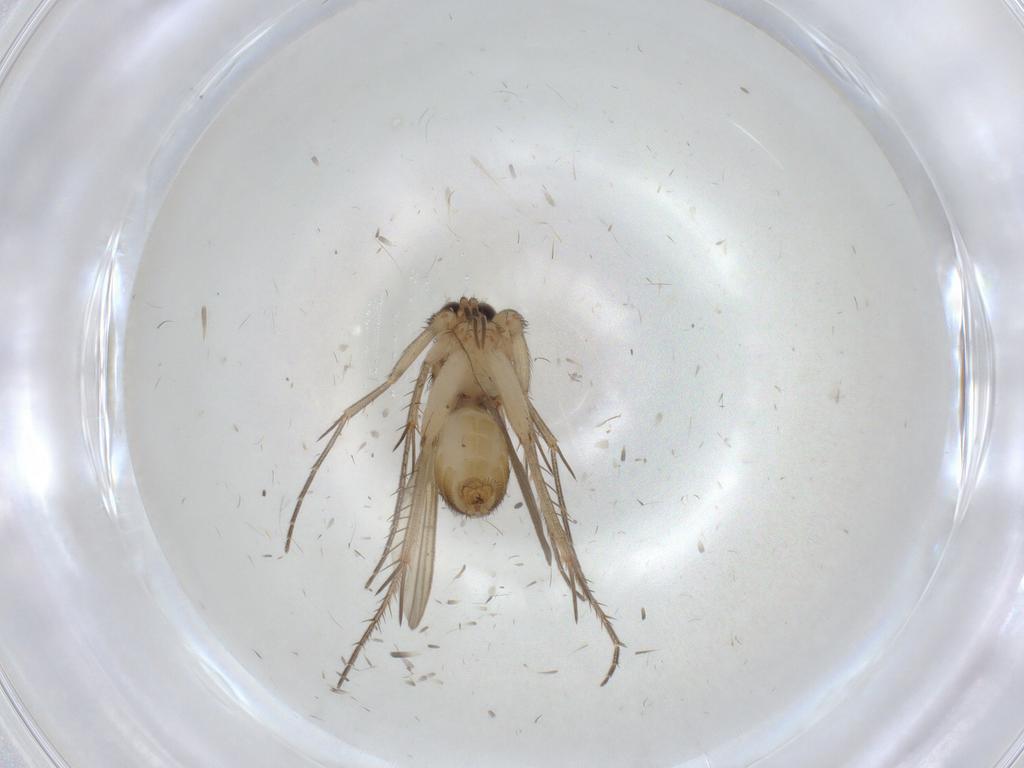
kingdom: Animalia
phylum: Arthropoda
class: Insecta
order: Diptera
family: Mycetophilidae
